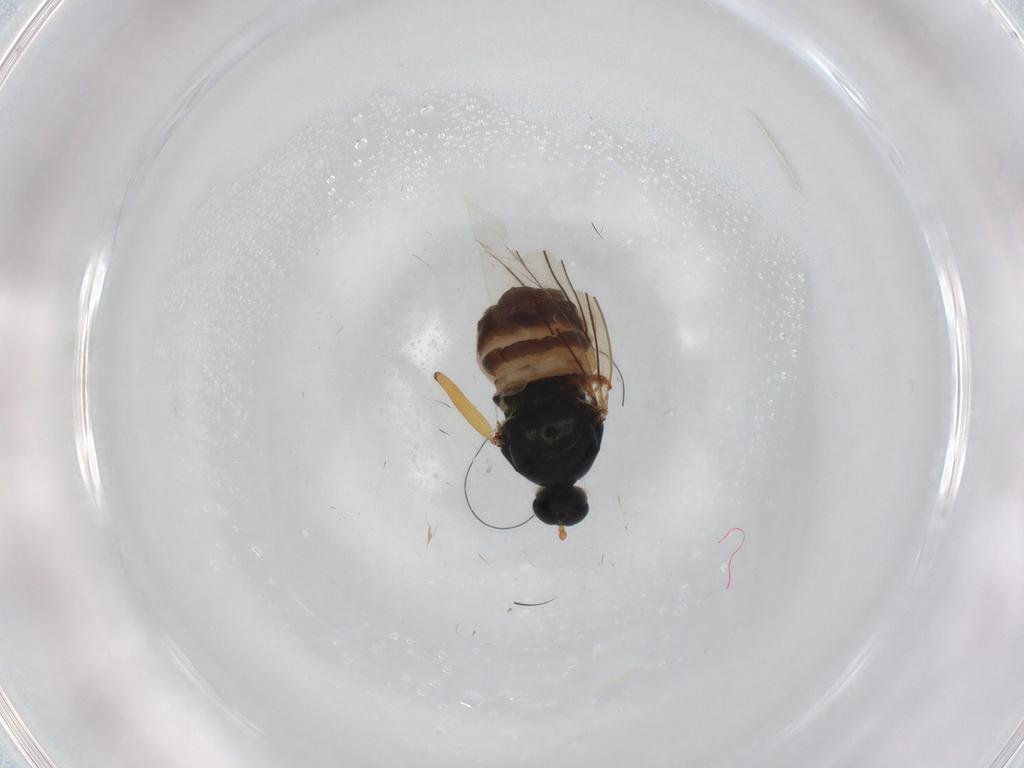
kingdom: Animalia
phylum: Arthropoda
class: Insecta
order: Diptera
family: Hybotidae
